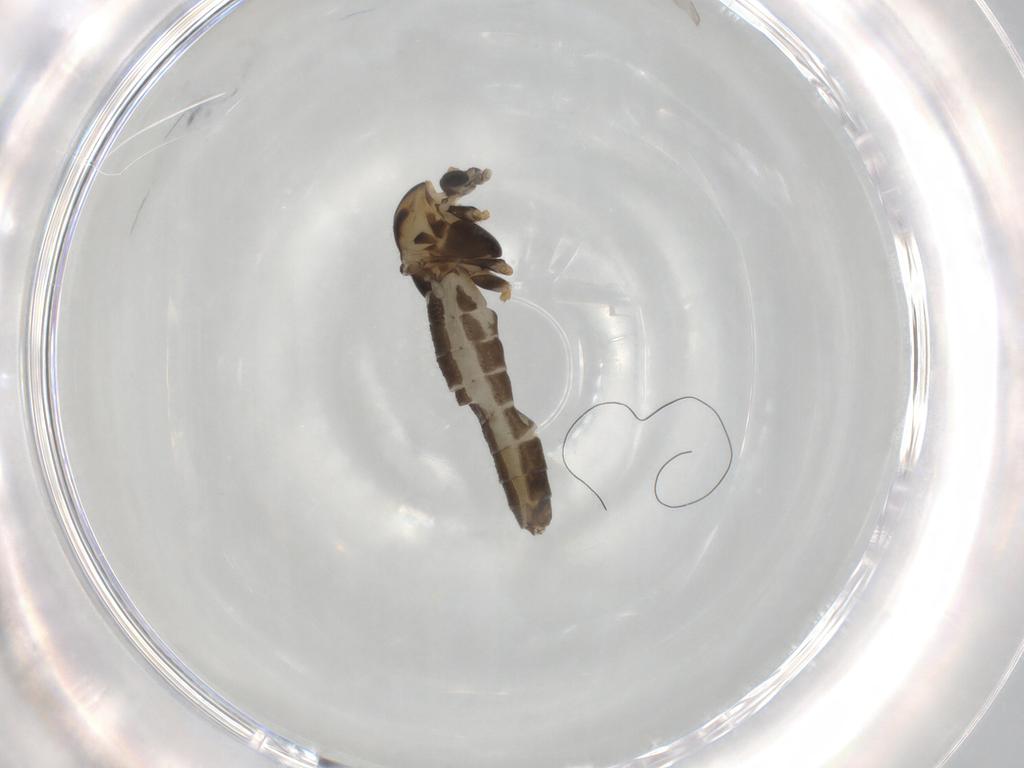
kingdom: Animalia
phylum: Arthropoda
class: Insecta
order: Diptera
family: Chironomidae
